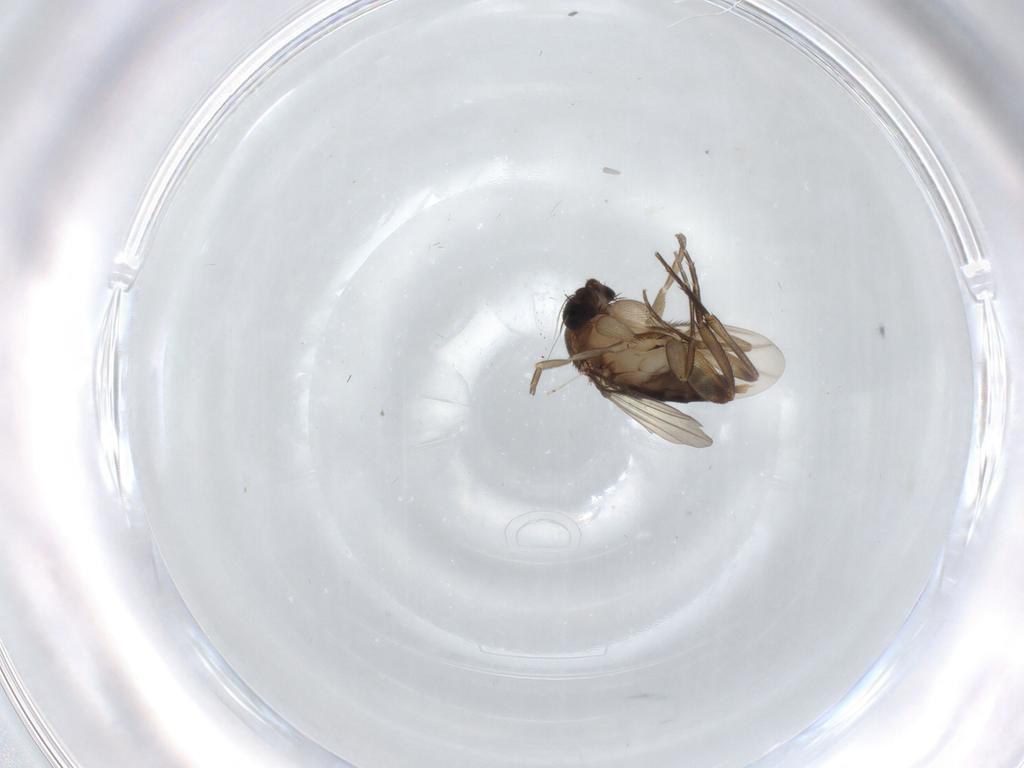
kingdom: Animalia
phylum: Arthropoda
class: Insecta
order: Diptera
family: Phoridae
